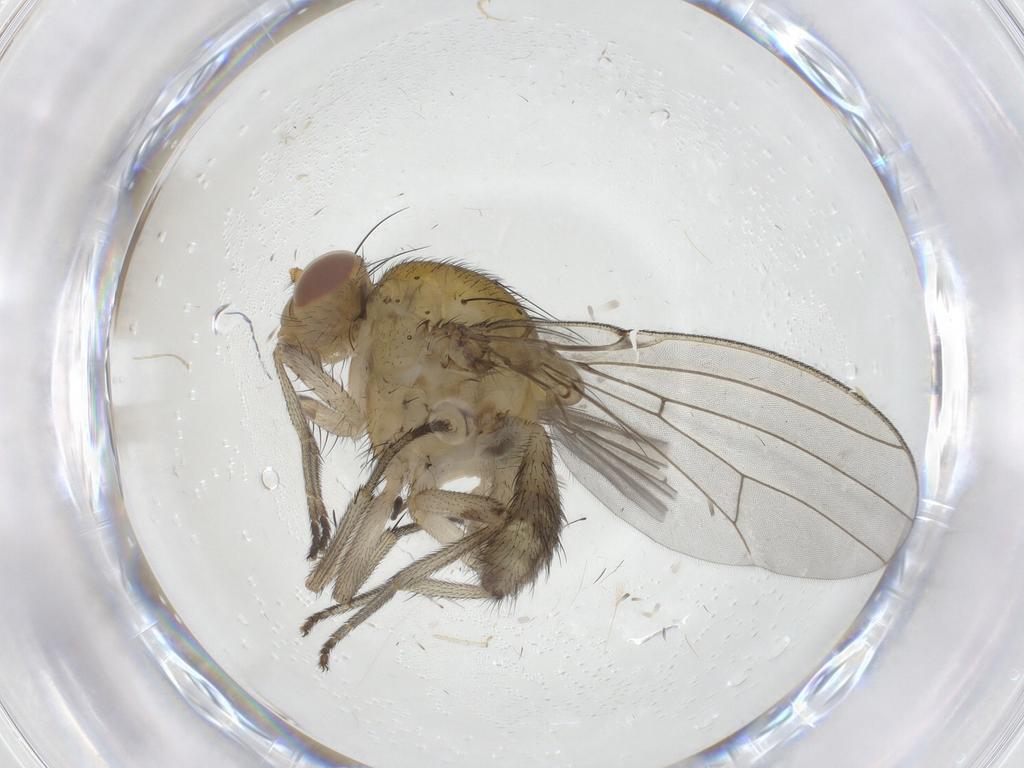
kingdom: Animalia
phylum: Arthropoda
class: Insecta
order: Diptera
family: Chironomidae
